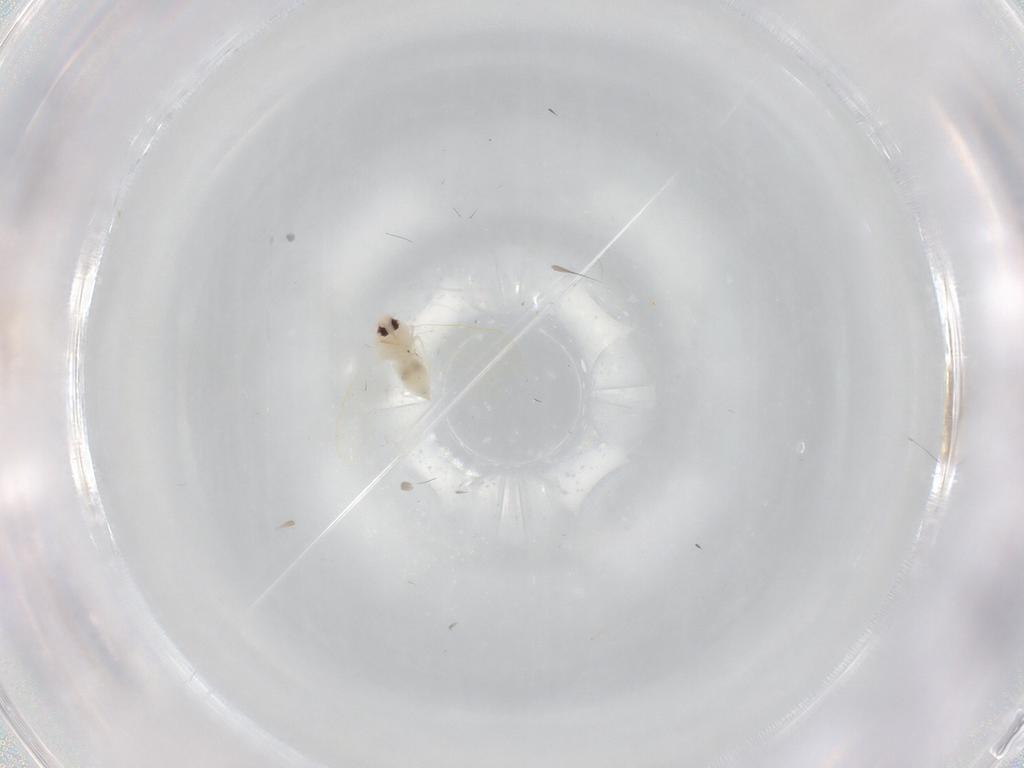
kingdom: Animalia
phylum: Arthropoda
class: Insecta
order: Hemiptera
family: Aleyrodidae
